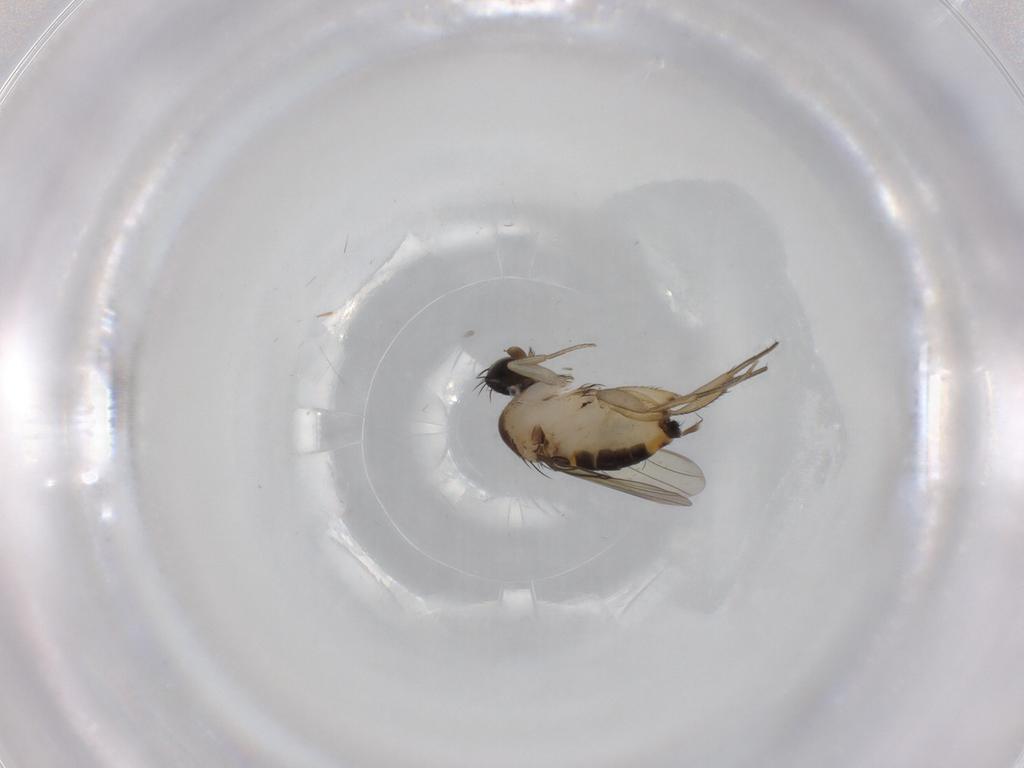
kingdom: Animalia
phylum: Arthropoda
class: Insecta
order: Diptera
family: Phoridae
